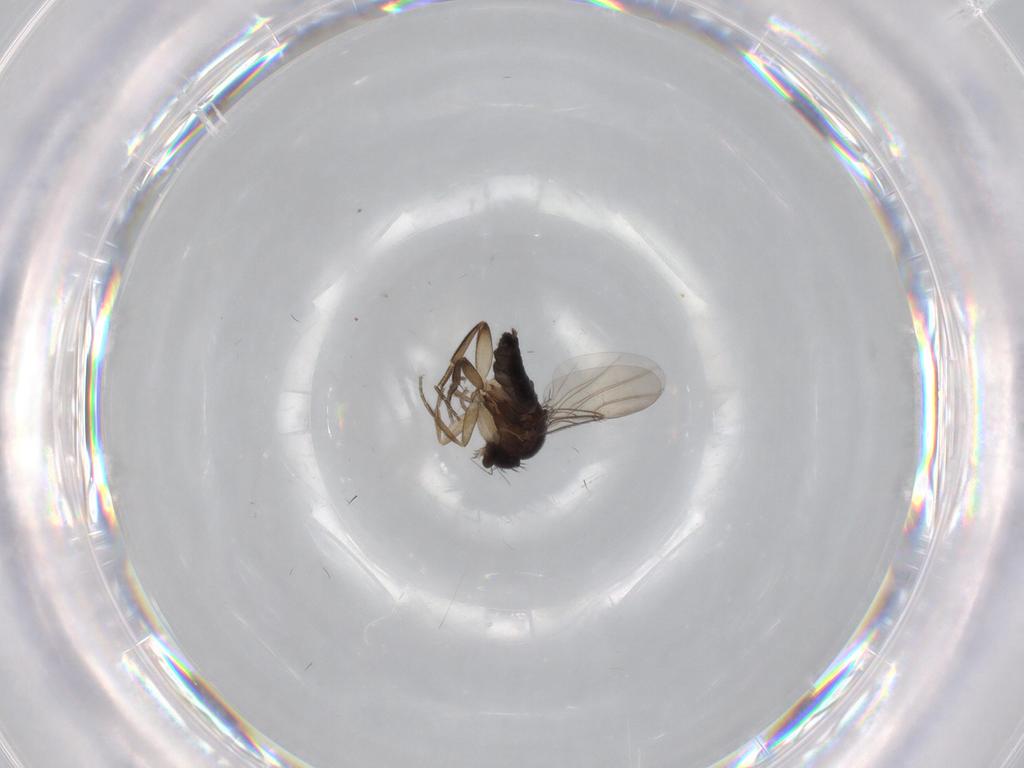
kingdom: Animalia
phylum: Arthropoda
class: Insecta
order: Diptera
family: Phoridae
